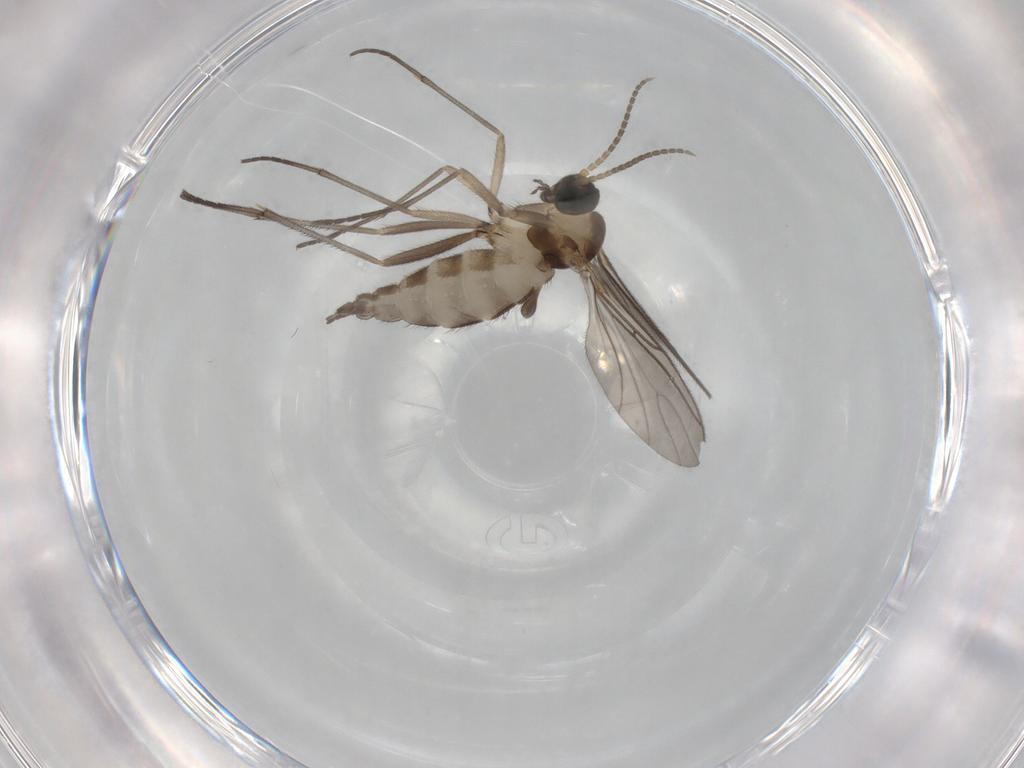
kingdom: Animalia
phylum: Arthropoda
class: Insecta
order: Diptera
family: Sciaridae
